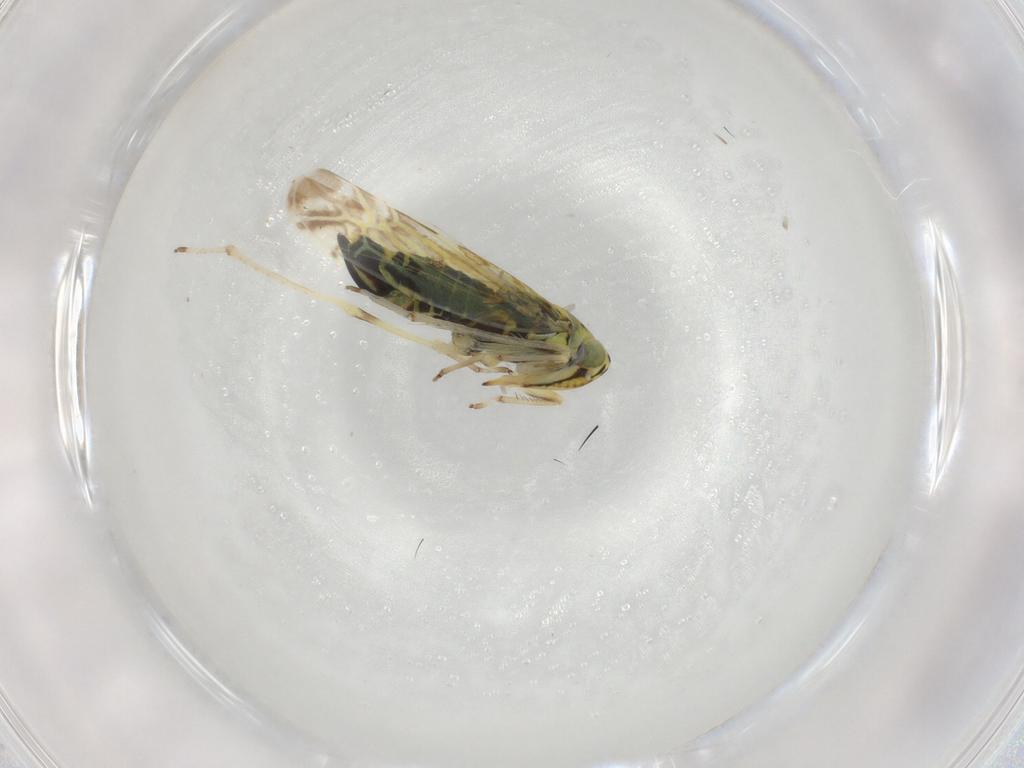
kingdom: Animalia
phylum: Arthropoda
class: Insecta
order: Hemiptera
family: Cicadellidae
